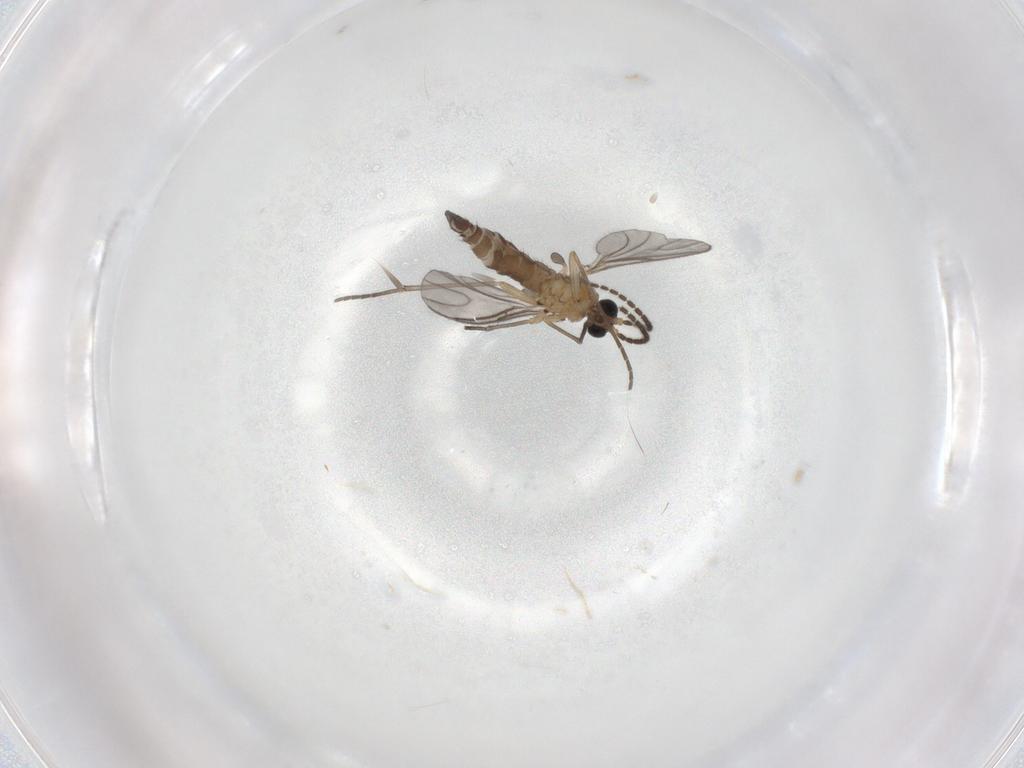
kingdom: Animalia
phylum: Arthropoda
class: Insecta
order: Diptera
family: Sciaridae
